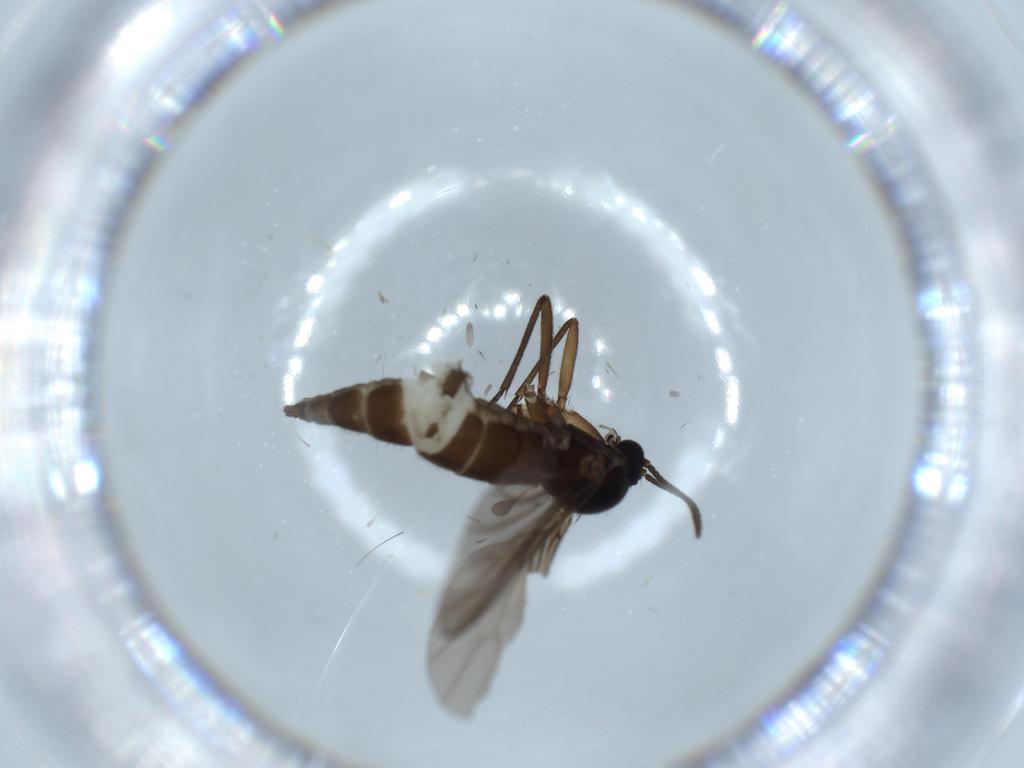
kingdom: Animalia
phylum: Arthropoda
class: Insecta
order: Diptera
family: Sciaridae
